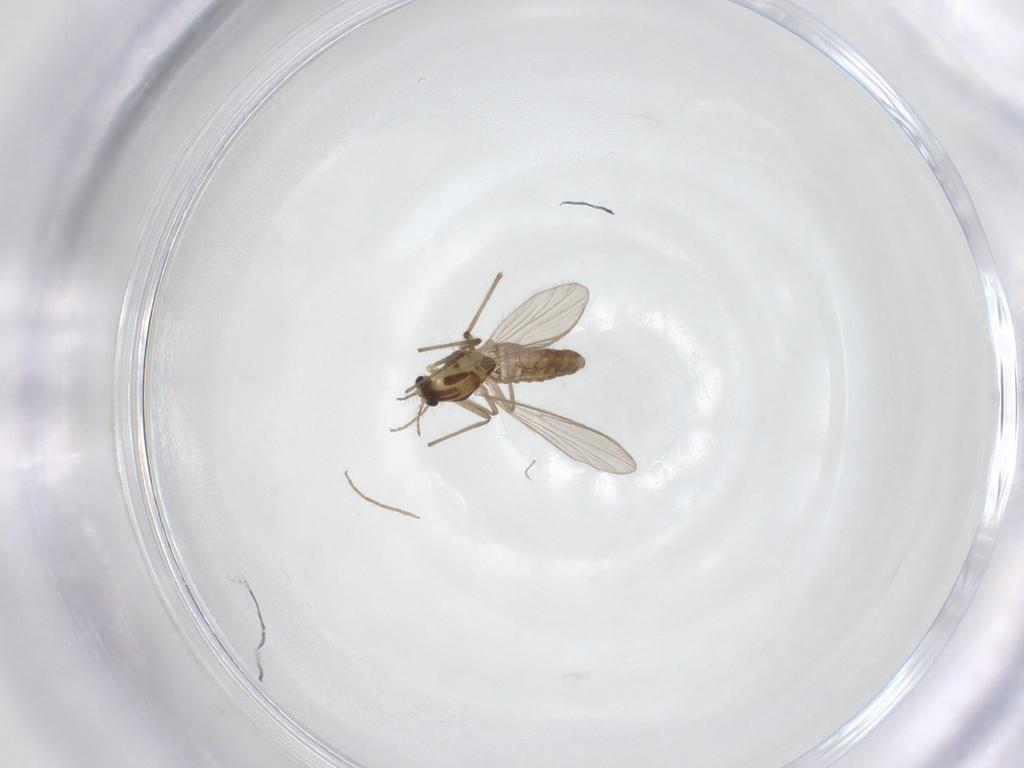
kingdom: Animalia
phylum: Arthropoda
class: Insecta
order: Diptera
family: Chironomidae
